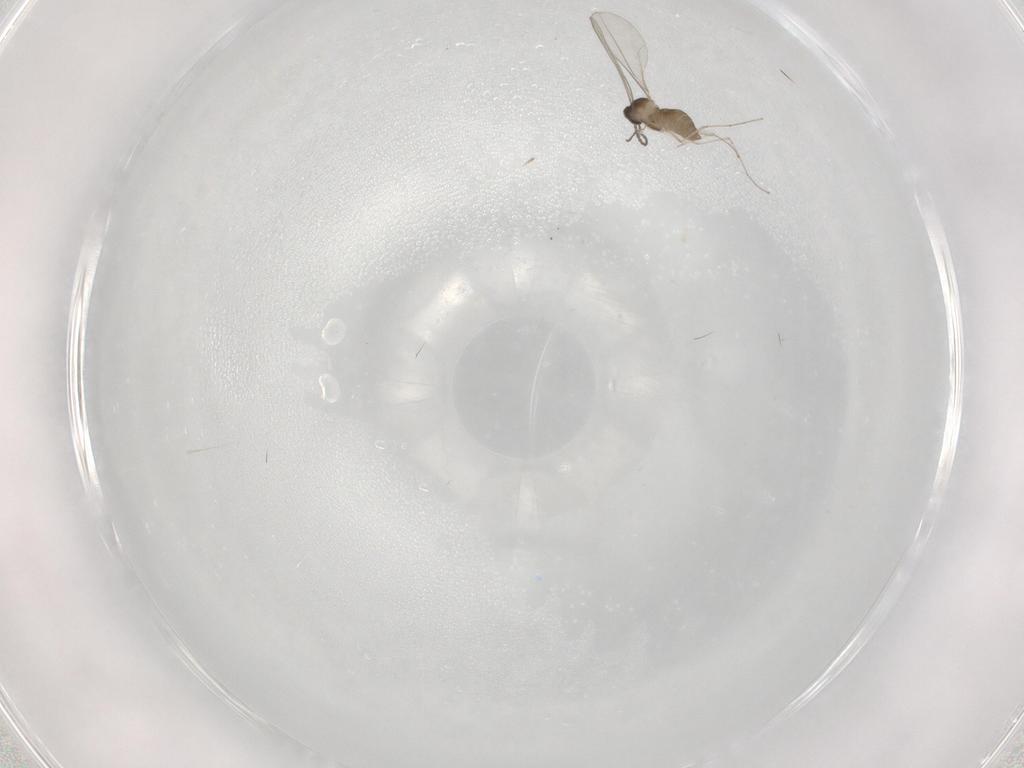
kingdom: Animalia
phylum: Arthropoda
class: Insecta
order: Diptera
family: Cecidomyiidae
